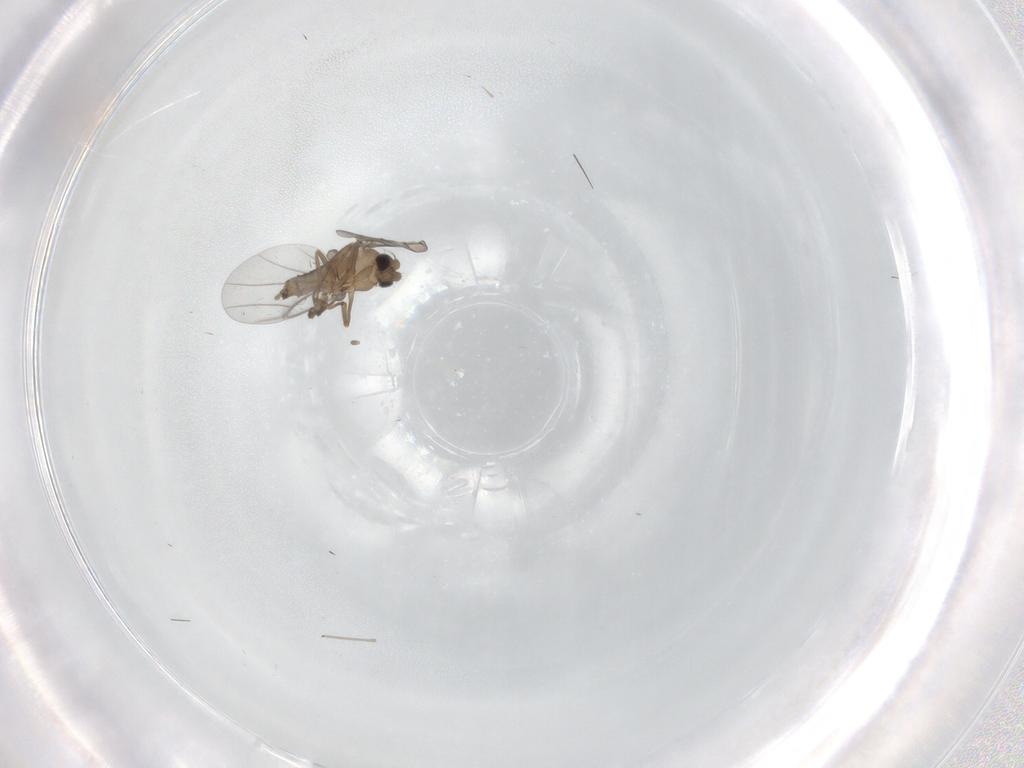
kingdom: Animalia
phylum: Arthropoda
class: Insecta
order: Diptera
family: Cecidomyiidae
